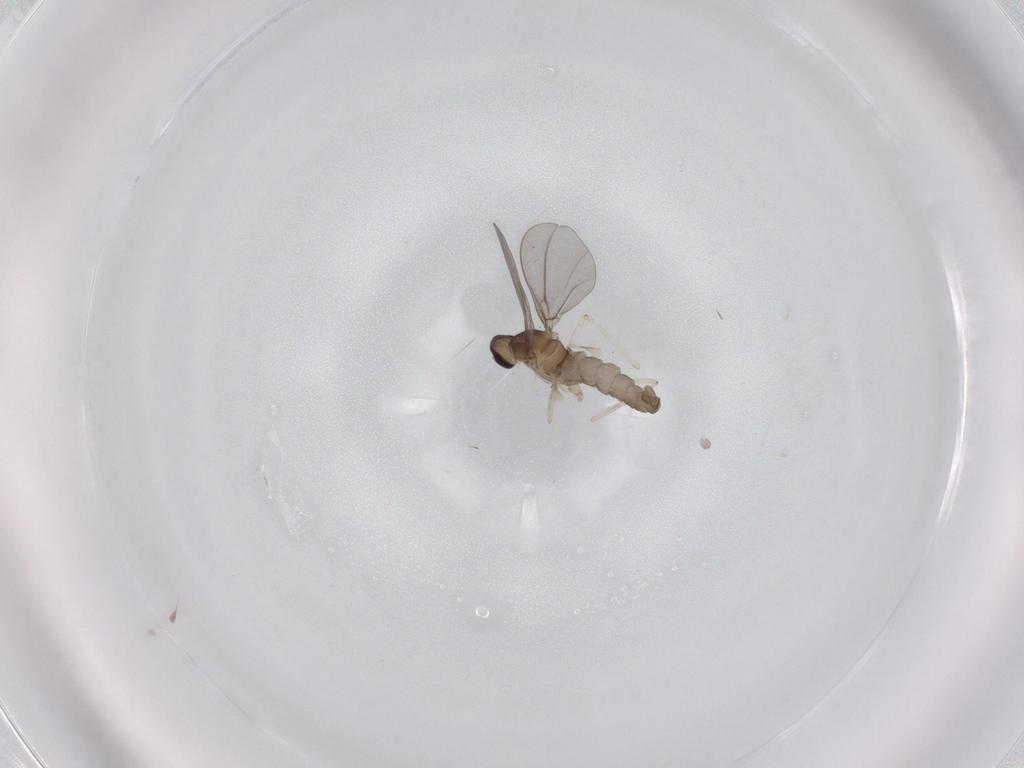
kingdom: Animalia
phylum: Arthropoda
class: Insecta
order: Diptera
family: Cecidomyiidae
